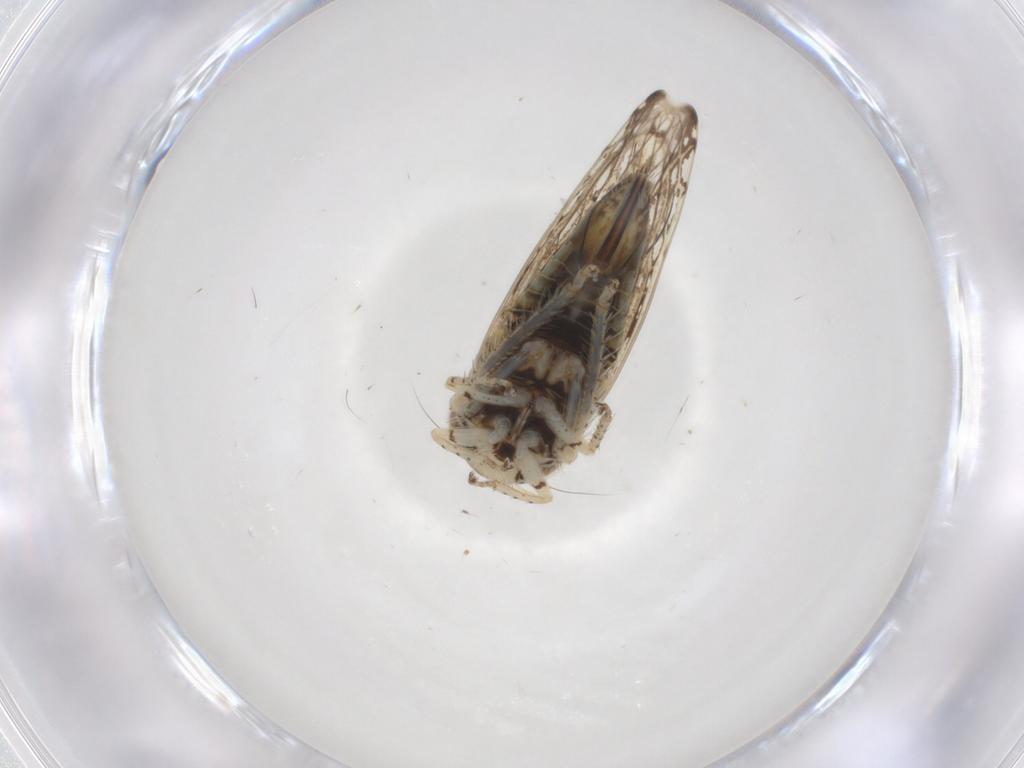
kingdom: Animalia
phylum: Arthropoda
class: Insecta
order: Hemiptera
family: Cicadellidae
